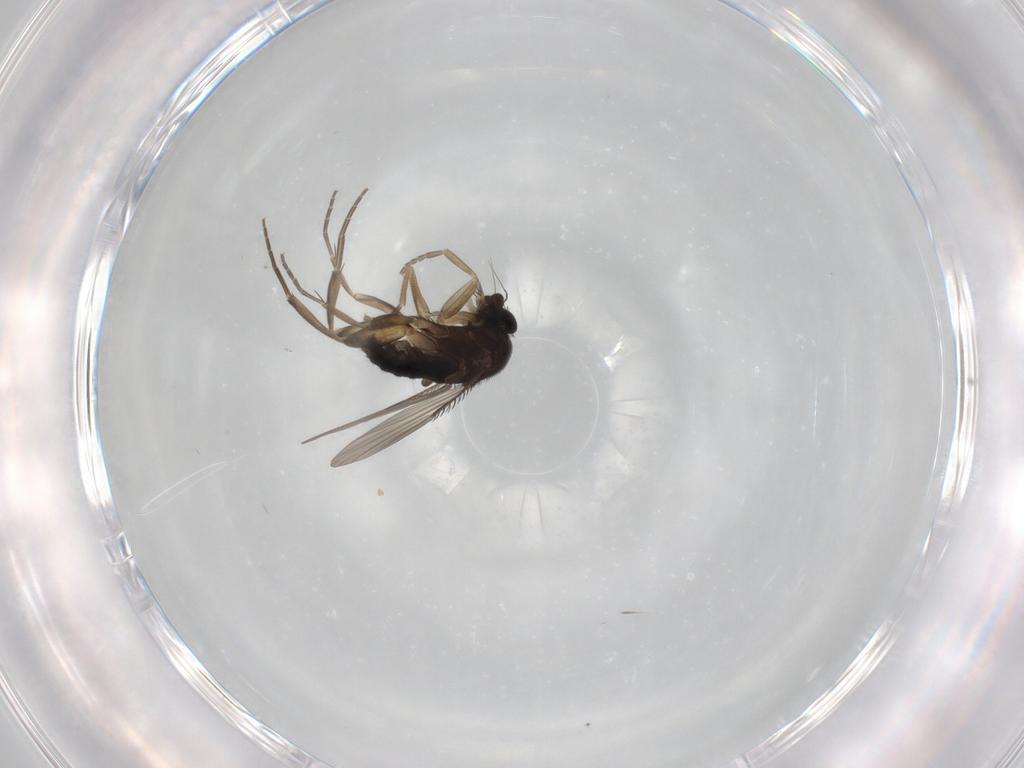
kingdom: Animalia
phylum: Arthropoda
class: Insecta
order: Diptera
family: Phoridae
